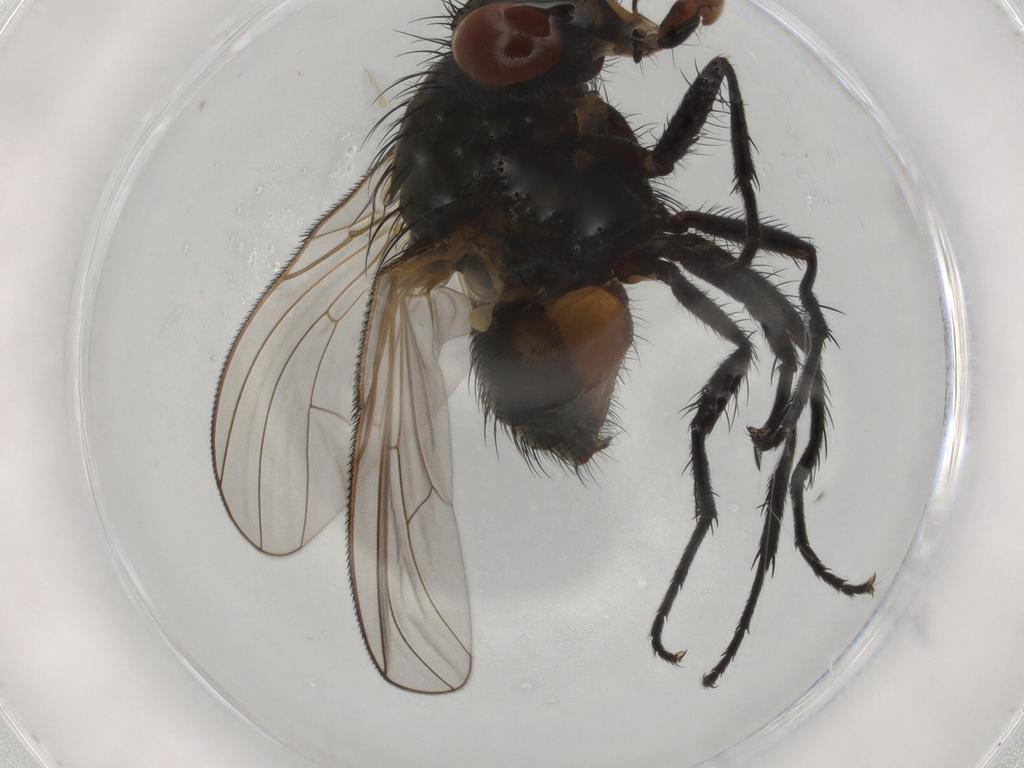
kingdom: Animalia
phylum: Arthropoda
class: Insecta
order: Diptera
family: Anthomyiidae
